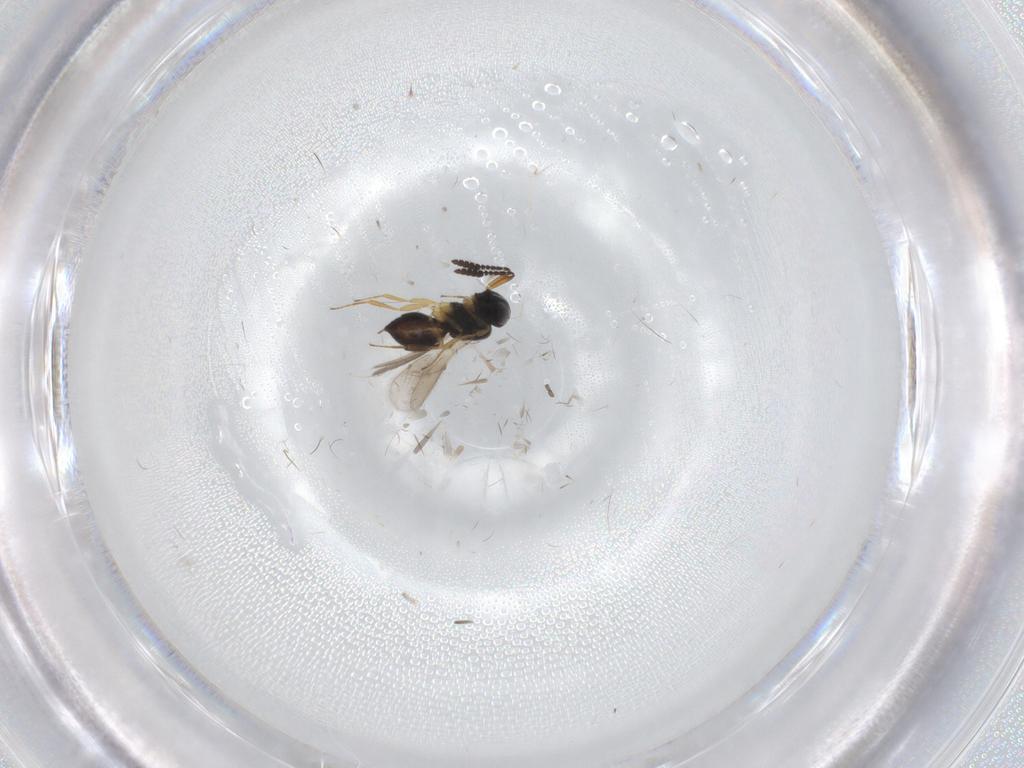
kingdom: Animalia
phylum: Arthropoda
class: Insecta
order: Hymenoptera
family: Scelionidae
